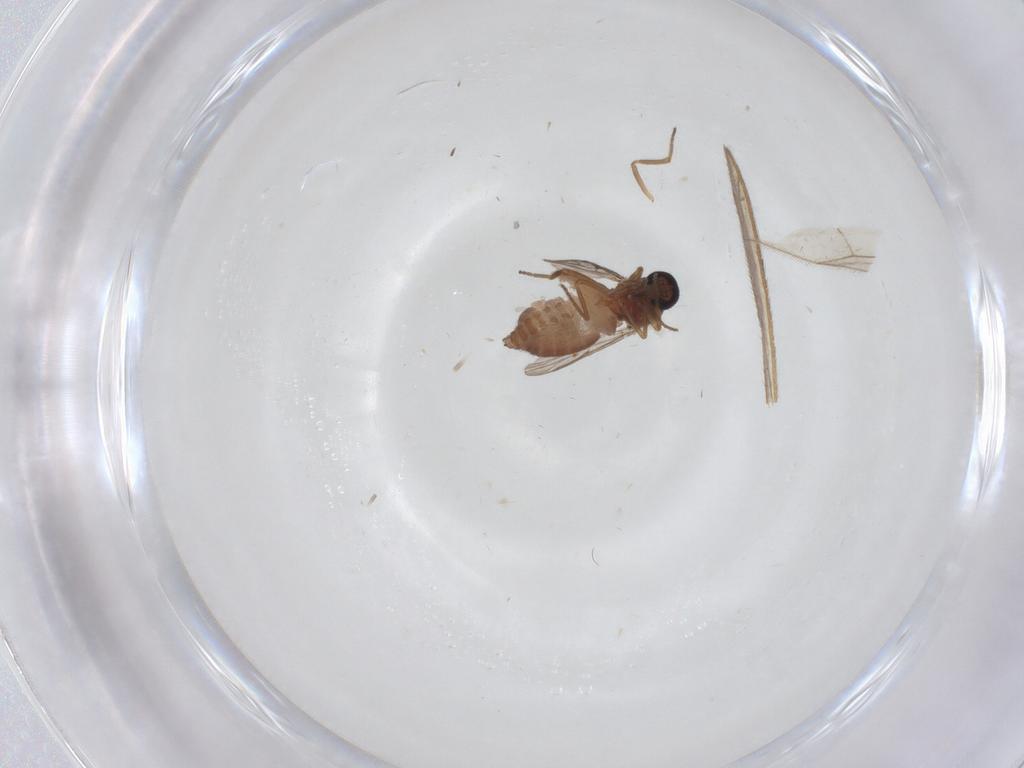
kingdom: Animalia
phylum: Arthropoda
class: Insecta
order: Diptera
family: Ceratopogonidae
